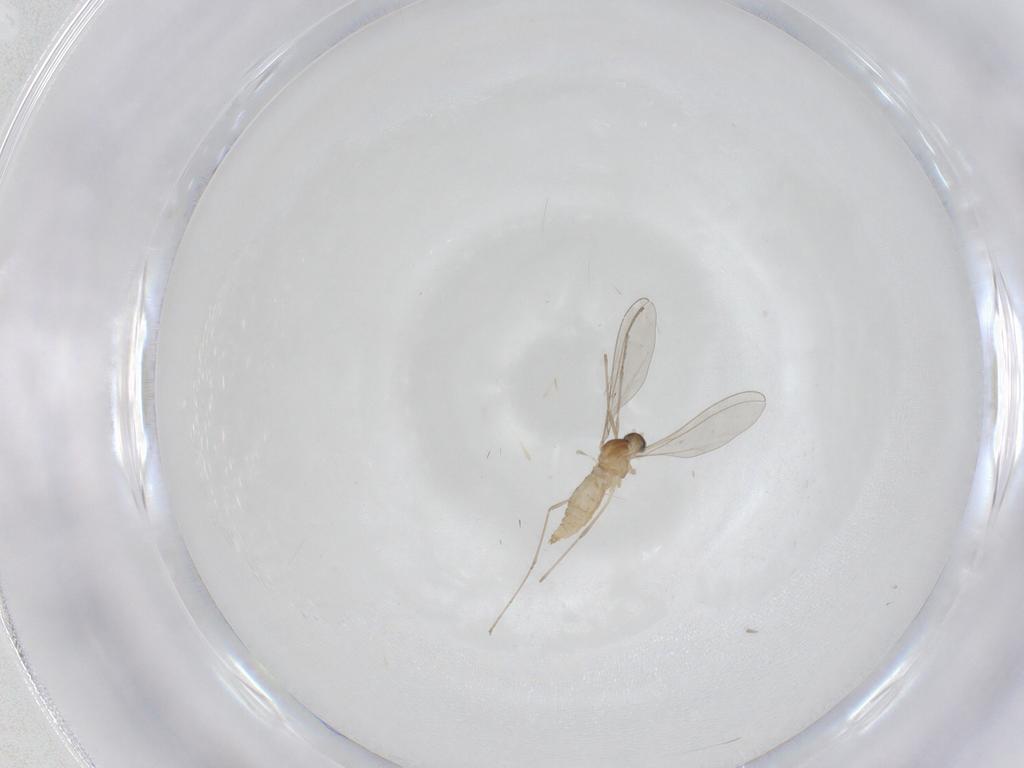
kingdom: Animalia
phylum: Arthropoda
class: Insecta
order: Diptera
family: Cecidomyiidae
